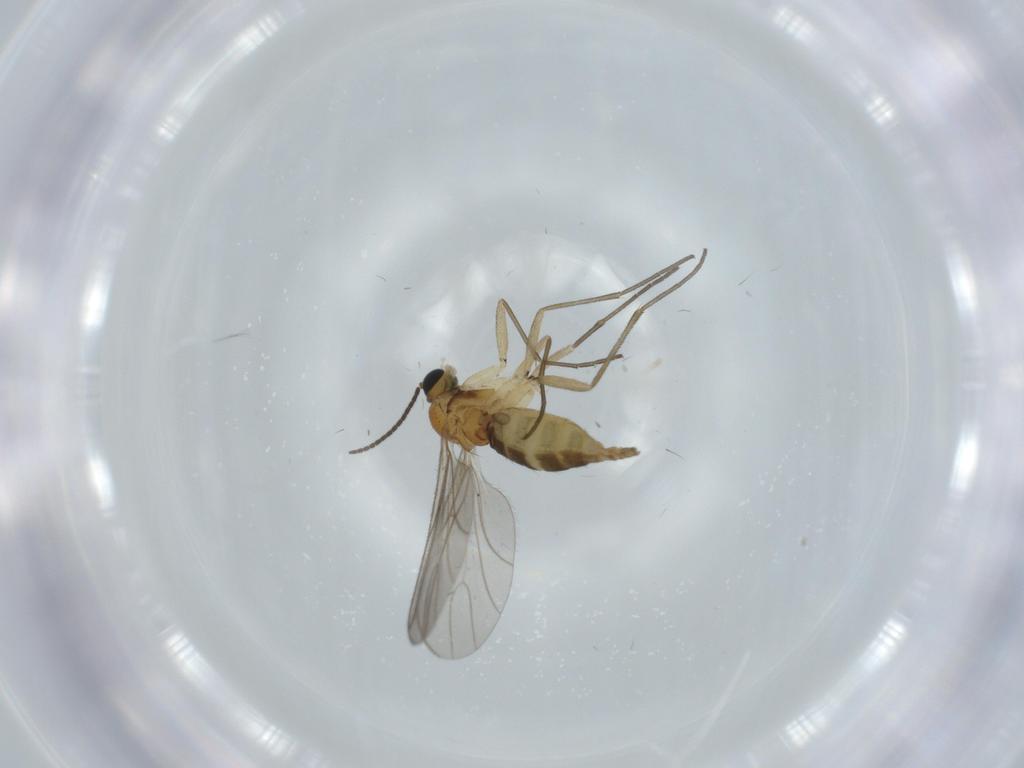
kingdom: Animalia
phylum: Arthropoda
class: Insecta
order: Diptera
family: Sciaridae
